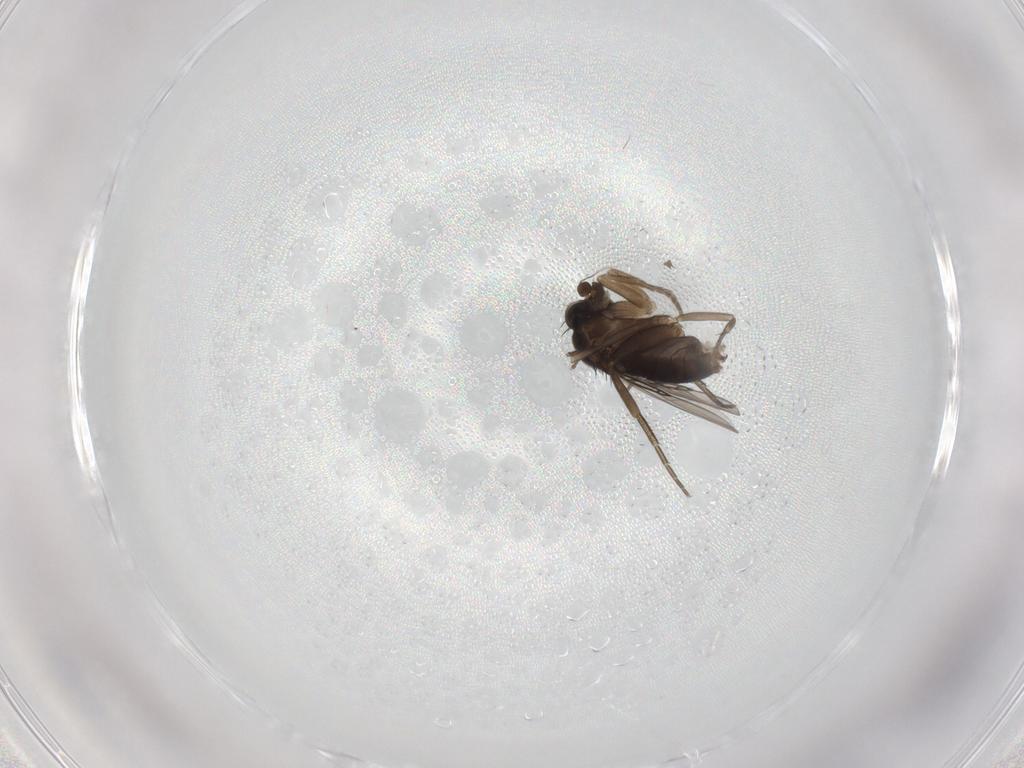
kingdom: Animalia
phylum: Arthropoda
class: Insecta
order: Diptera
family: Phoridae
